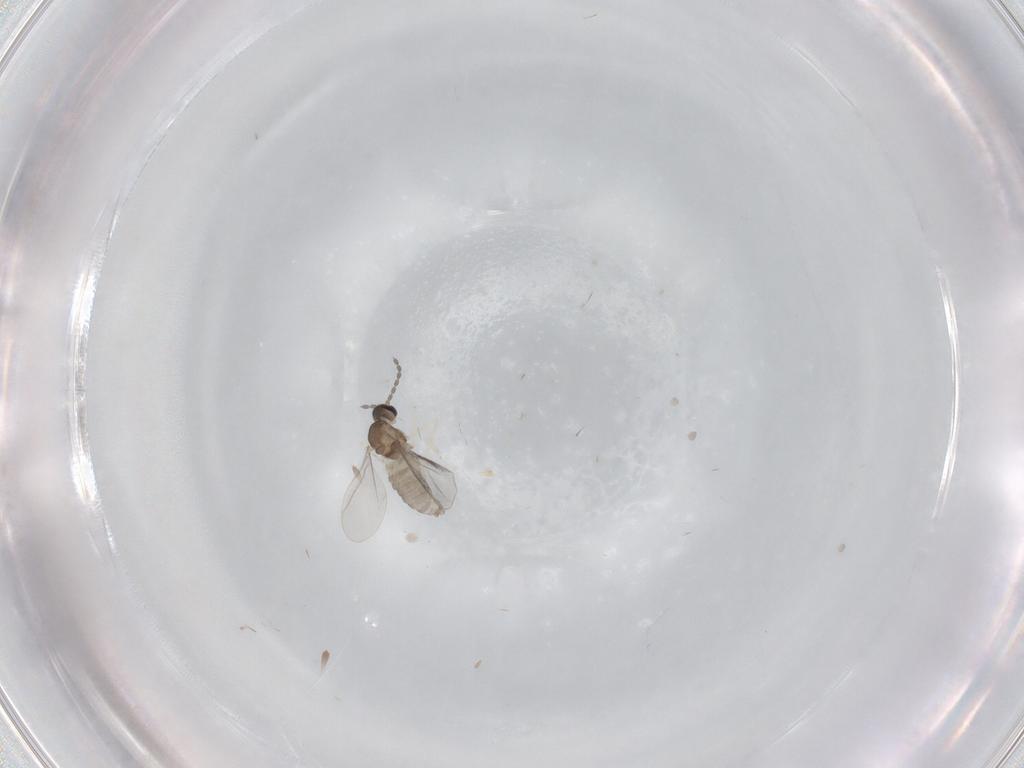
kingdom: Animalia
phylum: Arthropoda
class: Insecta
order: Diptera
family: Cecidomyiidae
